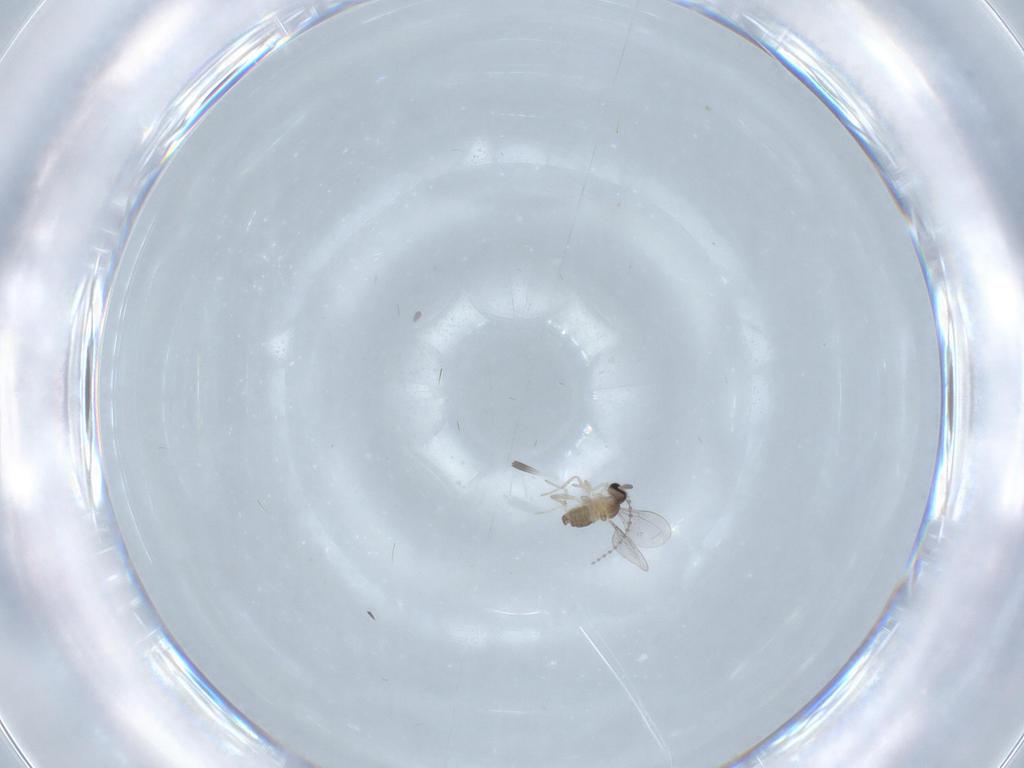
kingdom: Animalia
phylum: Arthropoda
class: Insecta
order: Diptera
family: Cecidomyiidae
